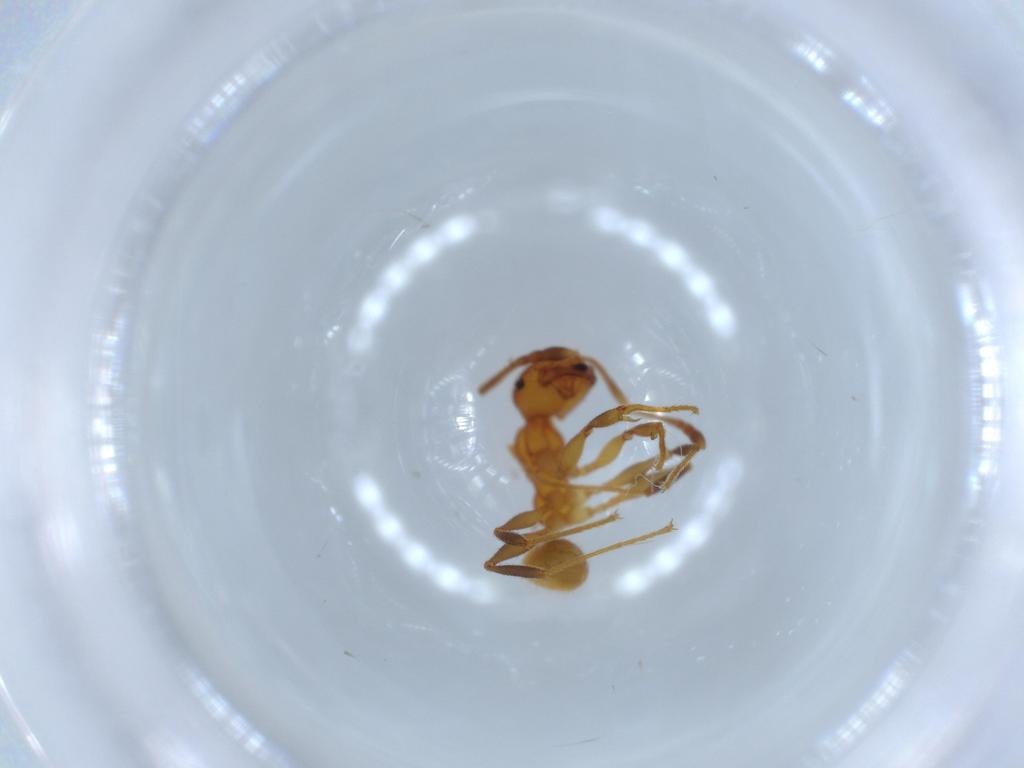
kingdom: Animalia
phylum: Arthropoda
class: Insecta
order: Hymenoptera
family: Formicidae
